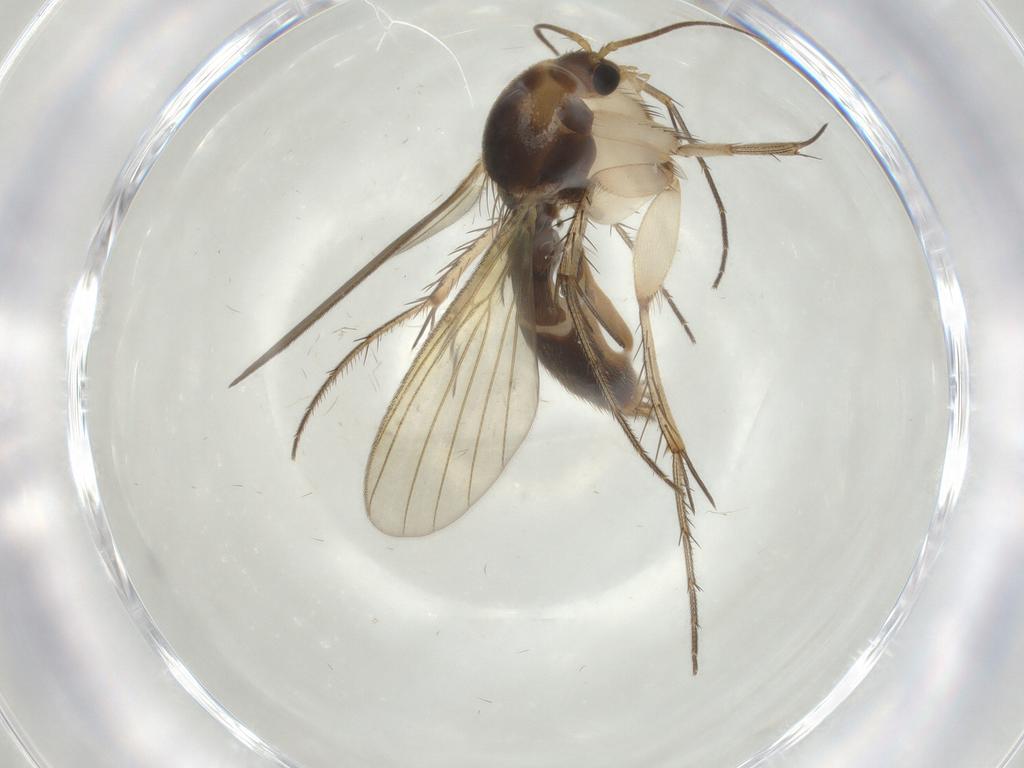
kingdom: Animalia
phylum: Arthropoda
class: Insecta
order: Diptera
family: Mycetophilidae
